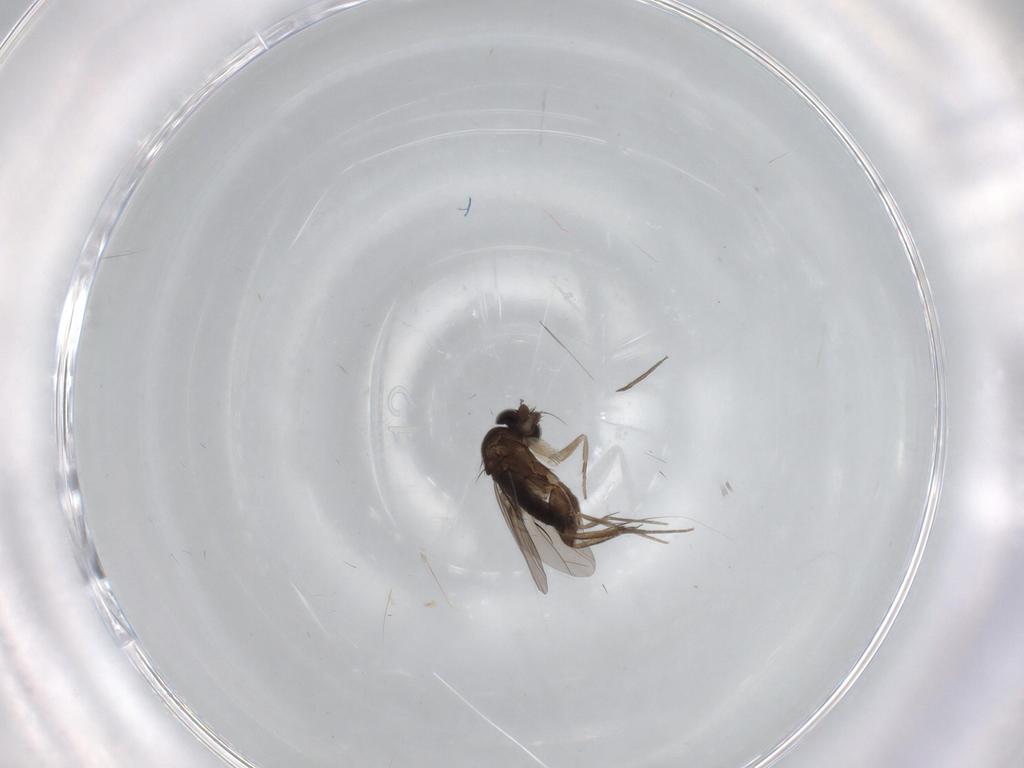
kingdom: Animalia
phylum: Arthropoda
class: Insecta
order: Diptera
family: Phoridae
